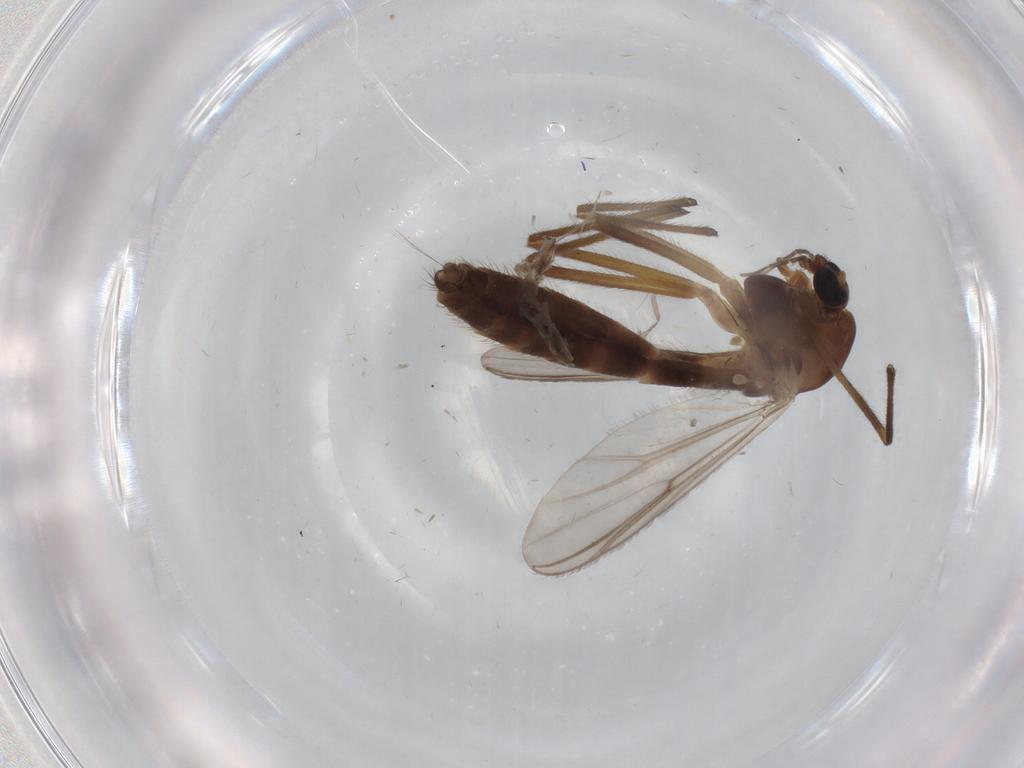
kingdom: Animalia
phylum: Arthropoda
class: Insecta
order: Diptera
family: Chironomidae
